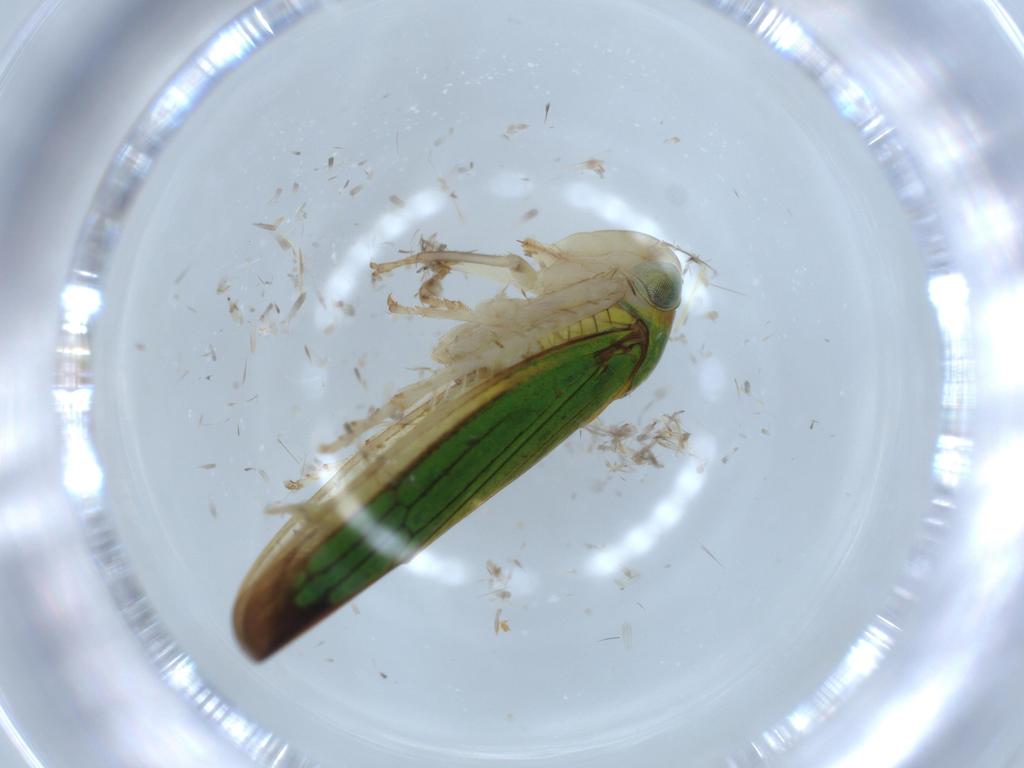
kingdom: Animalia
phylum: Arthropoda
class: Insecta
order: Hemiptera
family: Cicadellidae
